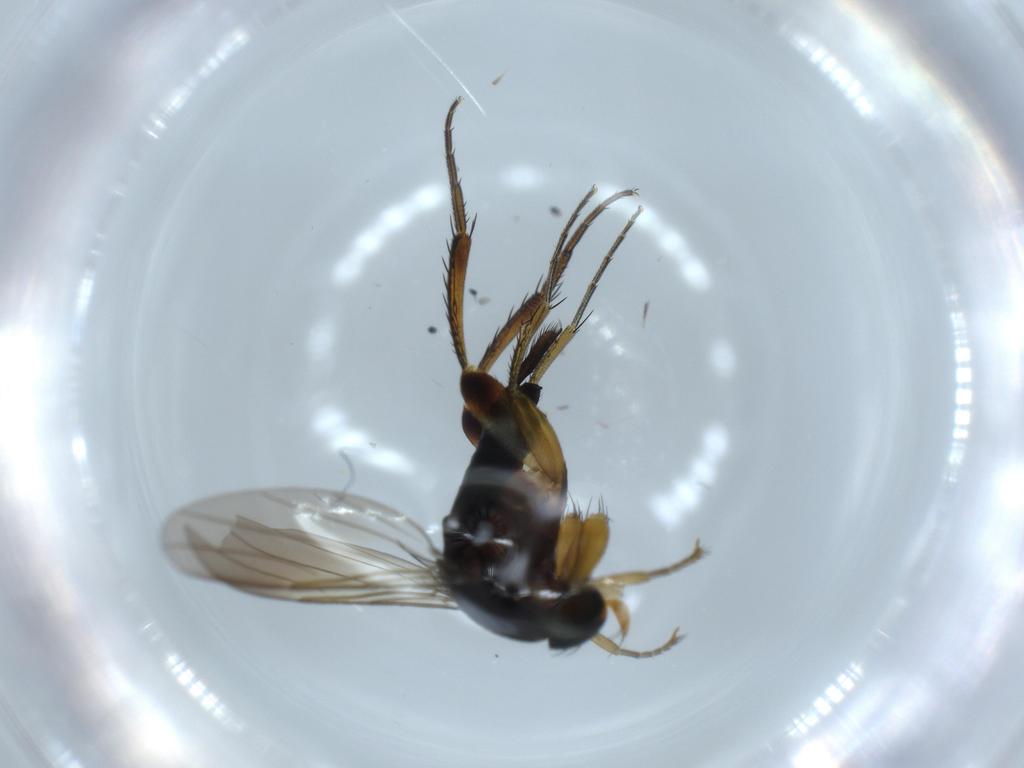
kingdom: Animalia
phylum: Arthropoda
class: Insecta
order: Diptera
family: Phoridae
